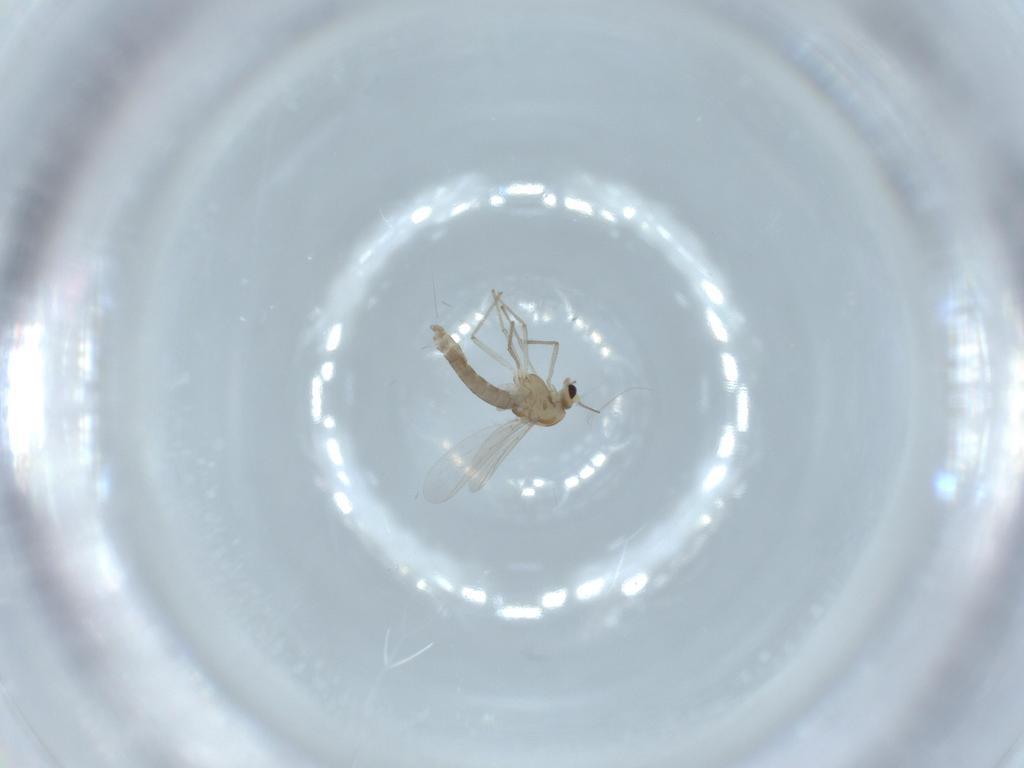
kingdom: Animalia
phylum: Arthropoda
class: Insecta
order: Diptera
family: Chironomidae
